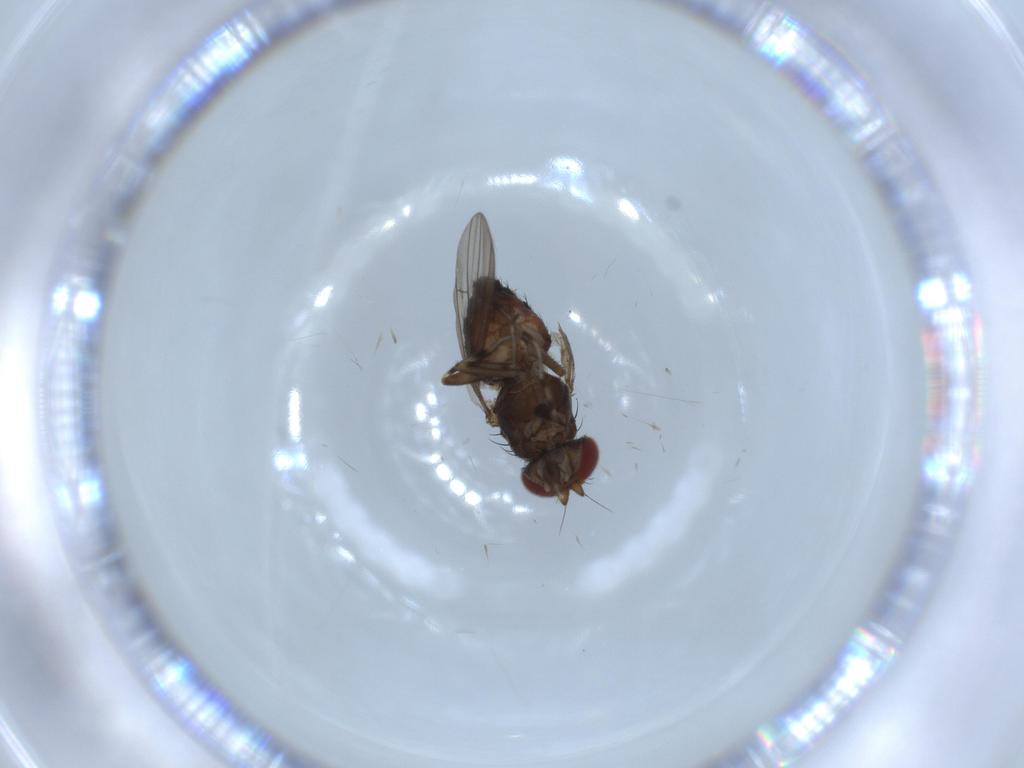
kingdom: Animalia
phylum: Arthropoda
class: Insecta
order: Diptera
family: Heleomyzidae
